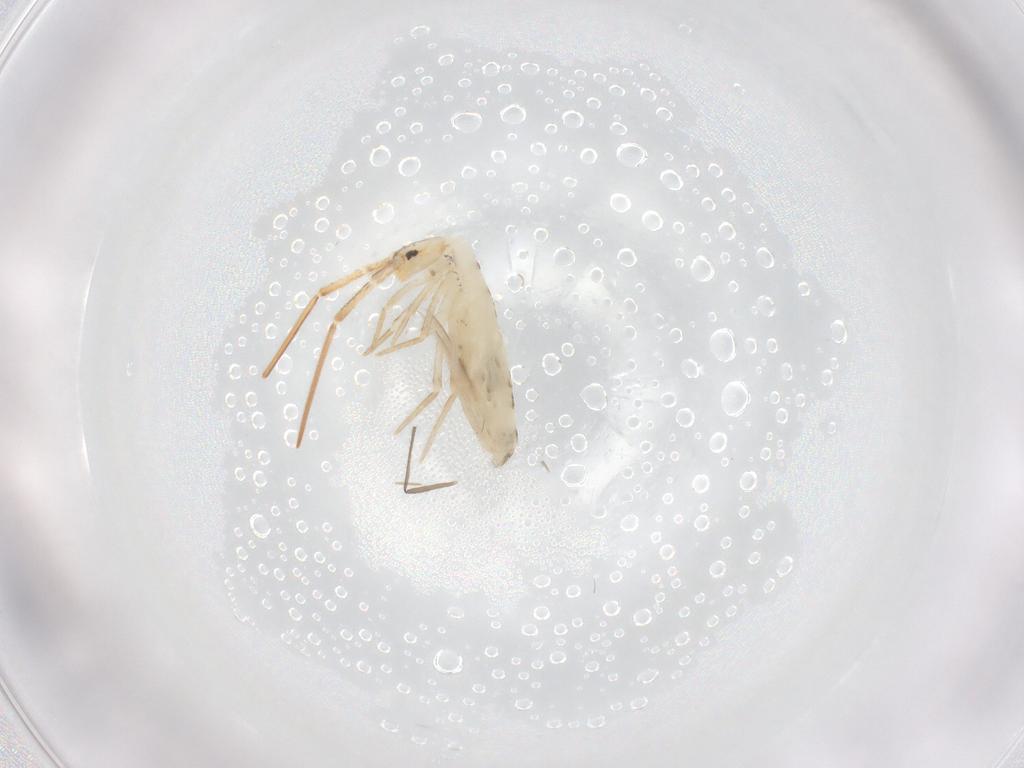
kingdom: Animalia
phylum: Arthropoda
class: Collembola
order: Entomobryomorpha
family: Entomobryidae
